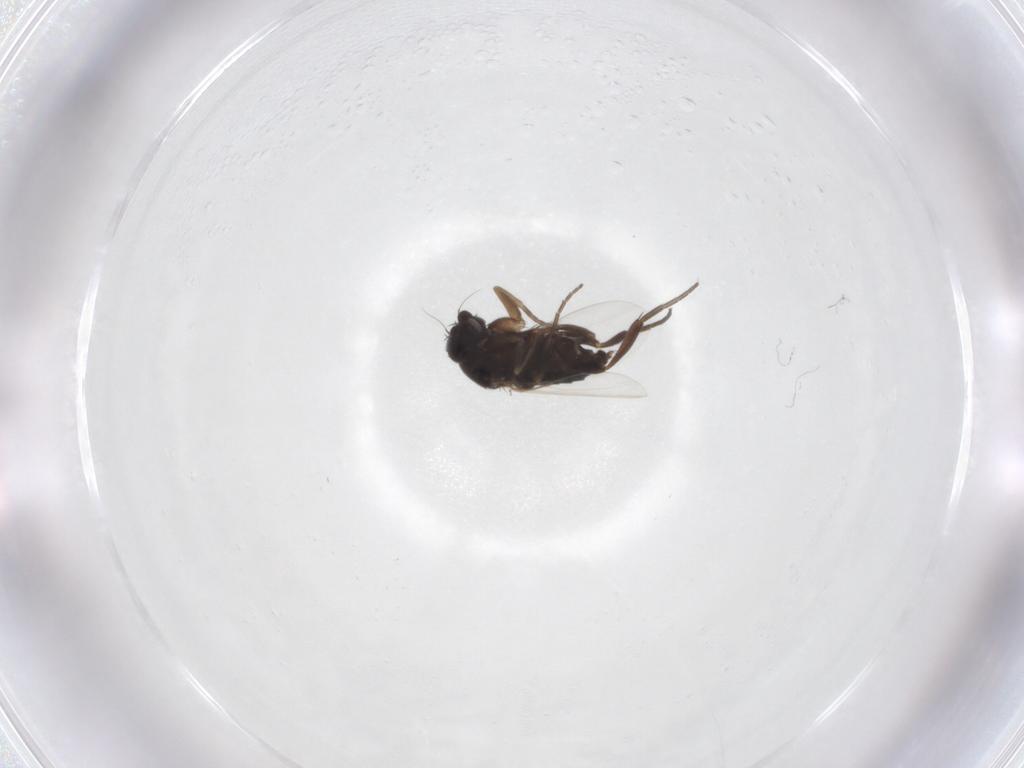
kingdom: Animalia
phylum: Arthropoda
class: Insecta
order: Diptera
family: Phoridae
